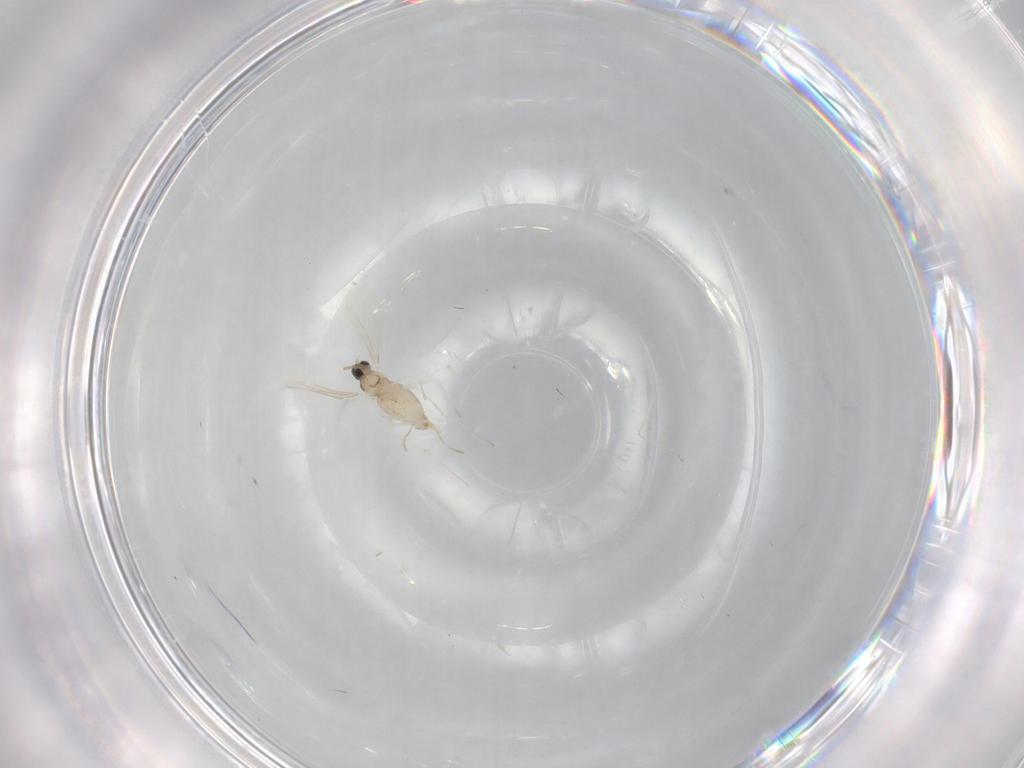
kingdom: Animalia
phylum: Arthropoda
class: Insecta
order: Diptera
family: Cecidomyiidae
